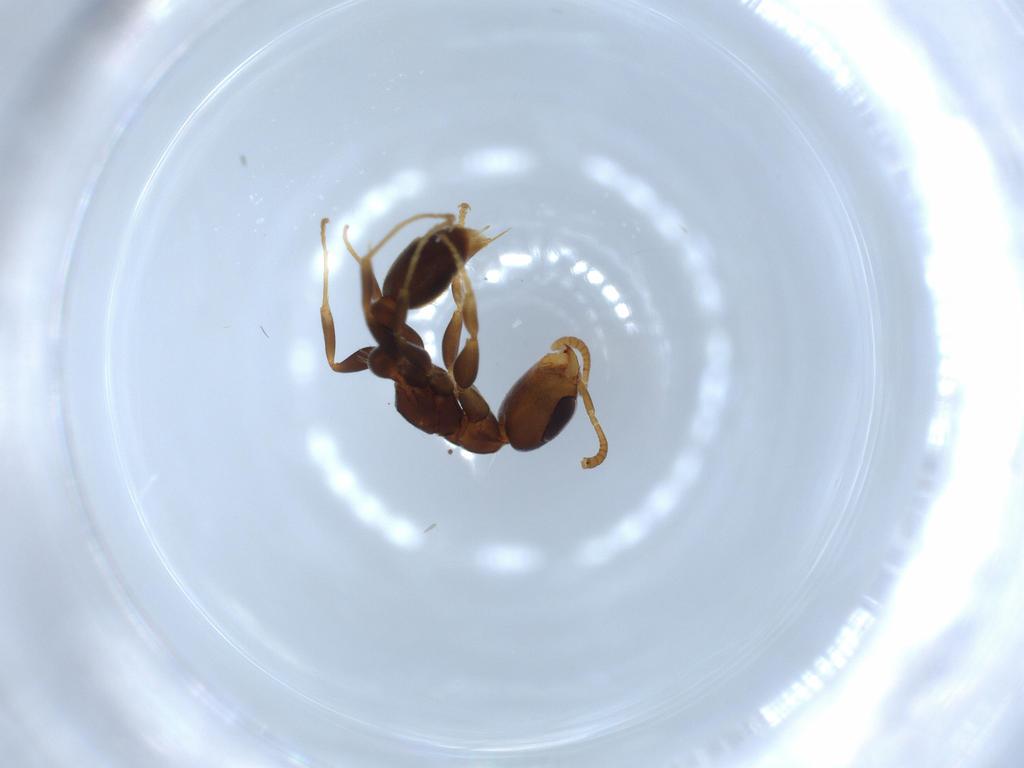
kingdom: Animalia
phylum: Arthropoda
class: Insecta
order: Hymenoptera
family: Formicidae
